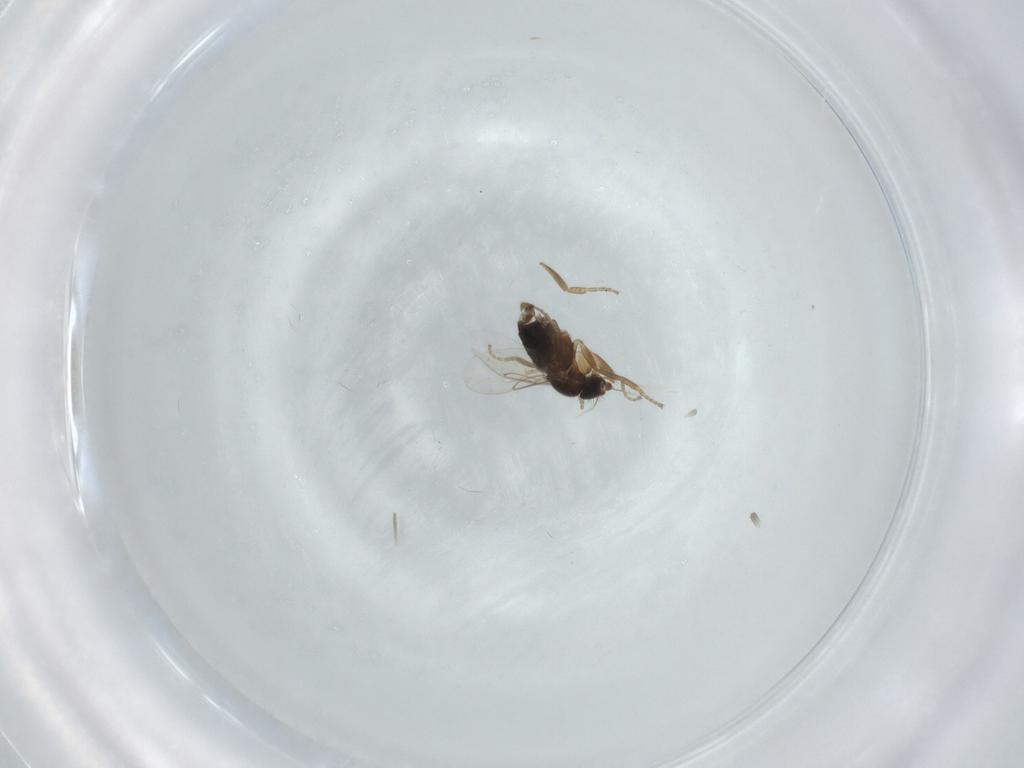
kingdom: Animalia
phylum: Arthropoda
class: Insecta
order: Diptera
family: Phoridae
